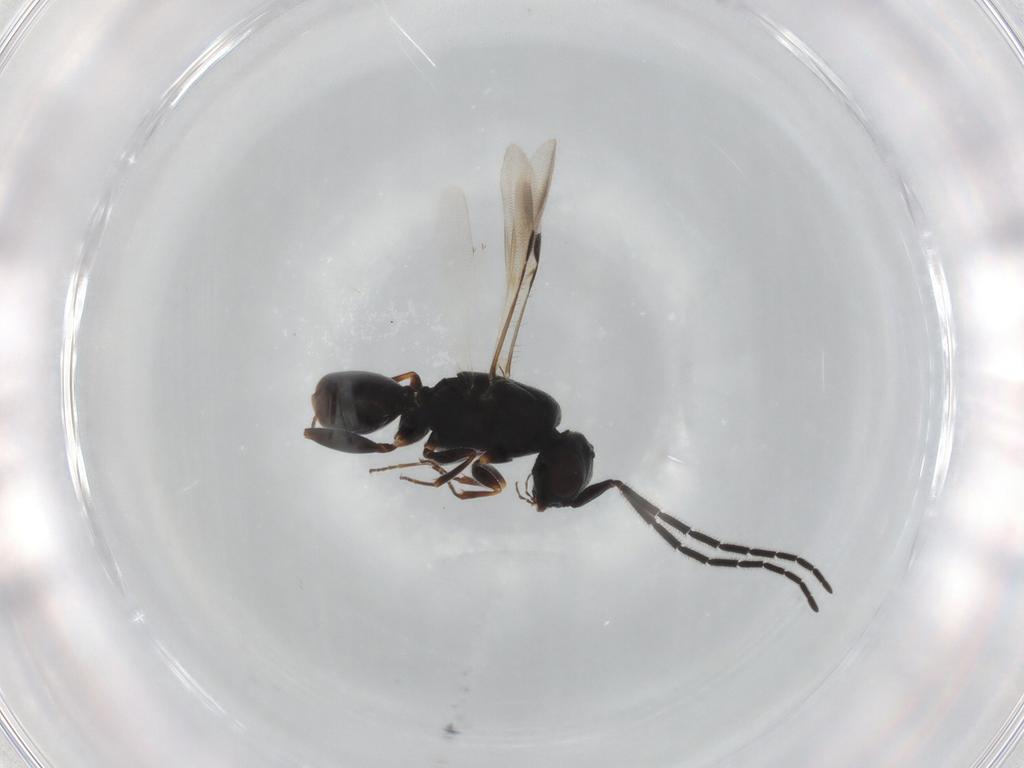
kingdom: Animalia
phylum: Arthropoda
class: Insecta
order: Hymenoptera
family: Megaspilidae
